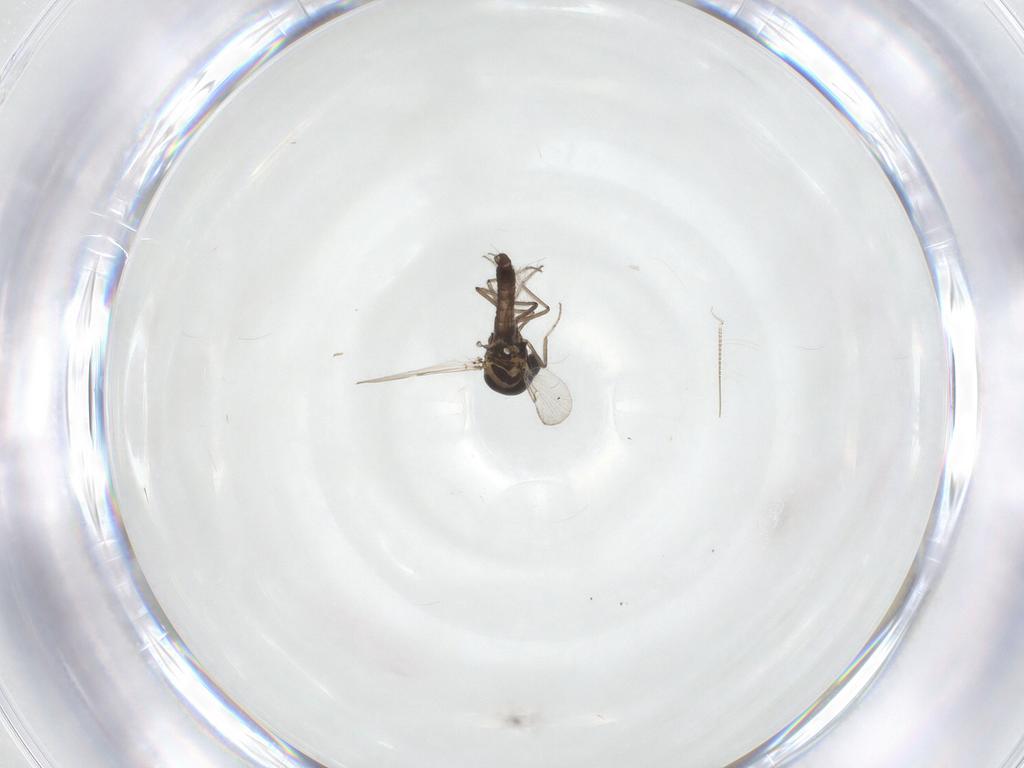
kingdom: Animalia
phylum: Arthropoda
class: Insecta
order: Diptera
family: Ceratopogonidae
